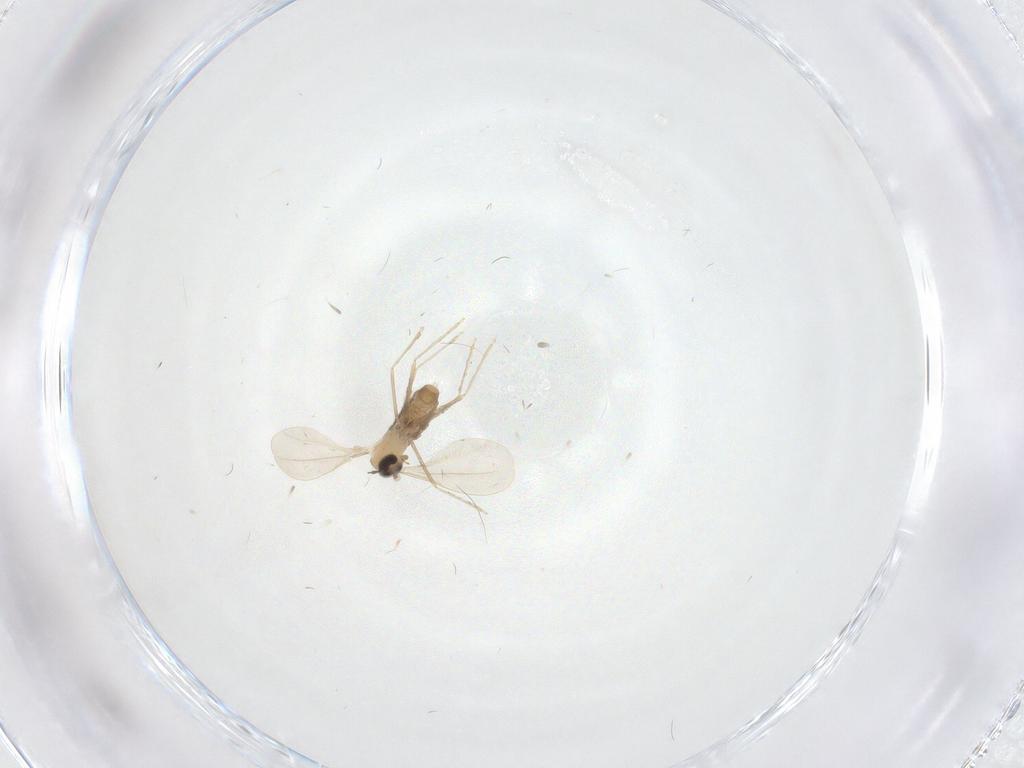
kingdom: Animalia
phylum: Arthropoda
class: Insecta
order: Diptera
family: Cecidomyiidae
